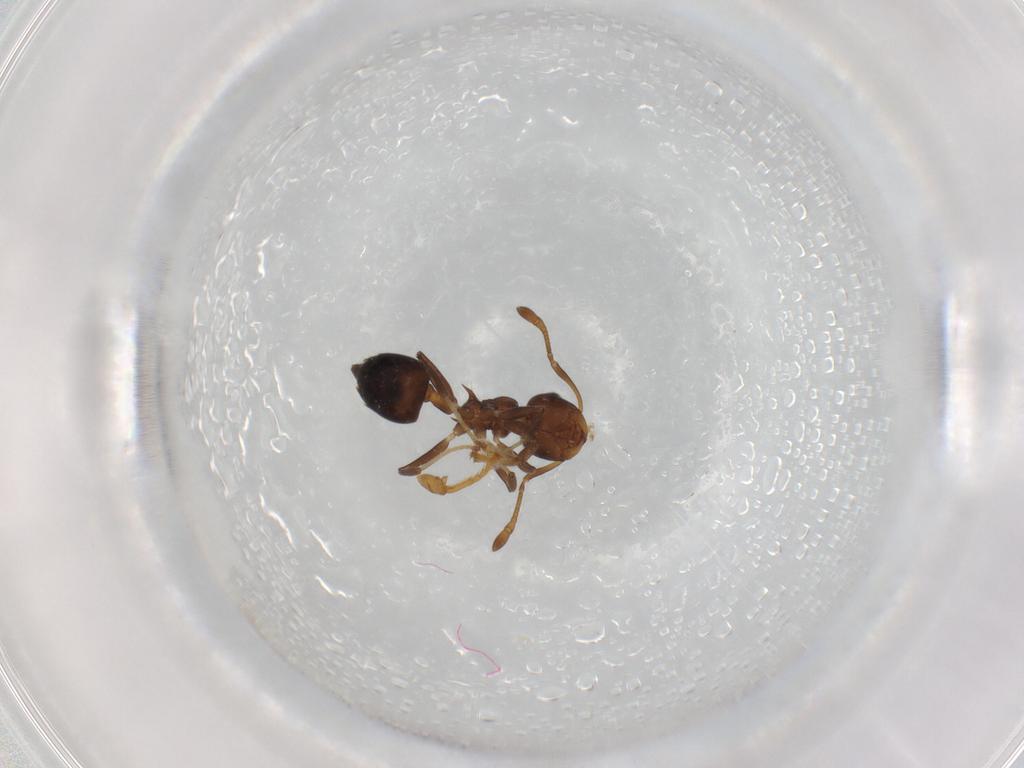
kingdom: Animalia
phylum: Arthropoda
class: Insecta
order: Hymenoptera
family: Formicidae
